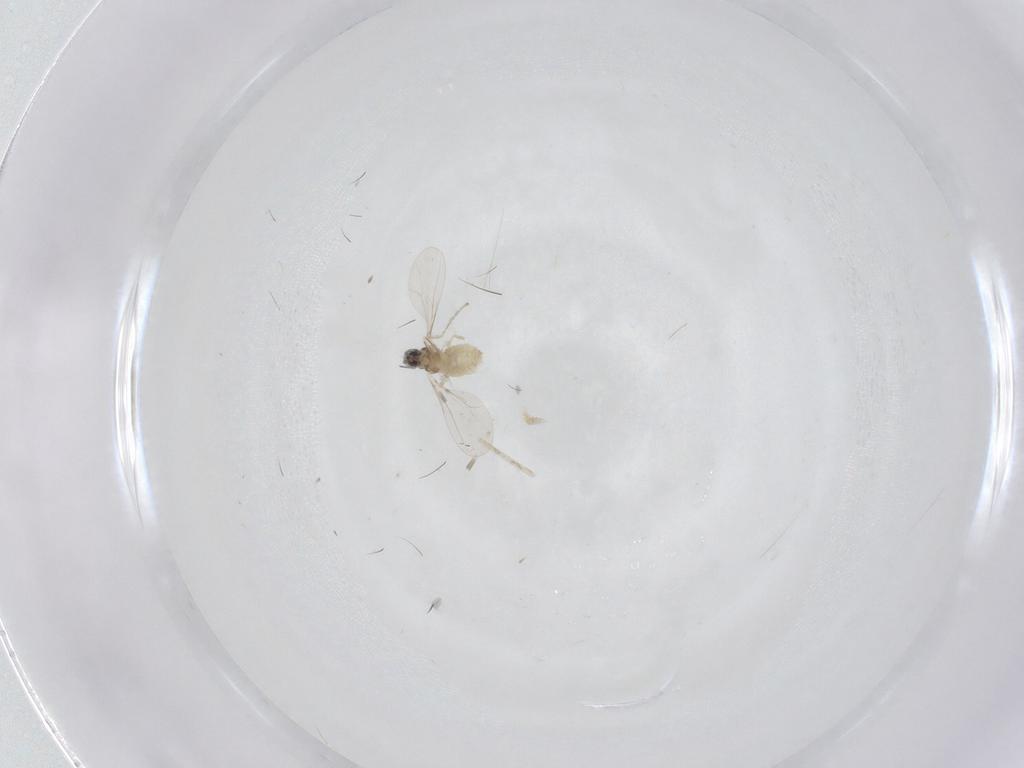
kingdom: Animalia
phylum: Arthropoda
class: Insecta
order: Diptera
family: Cecidomyiidae
